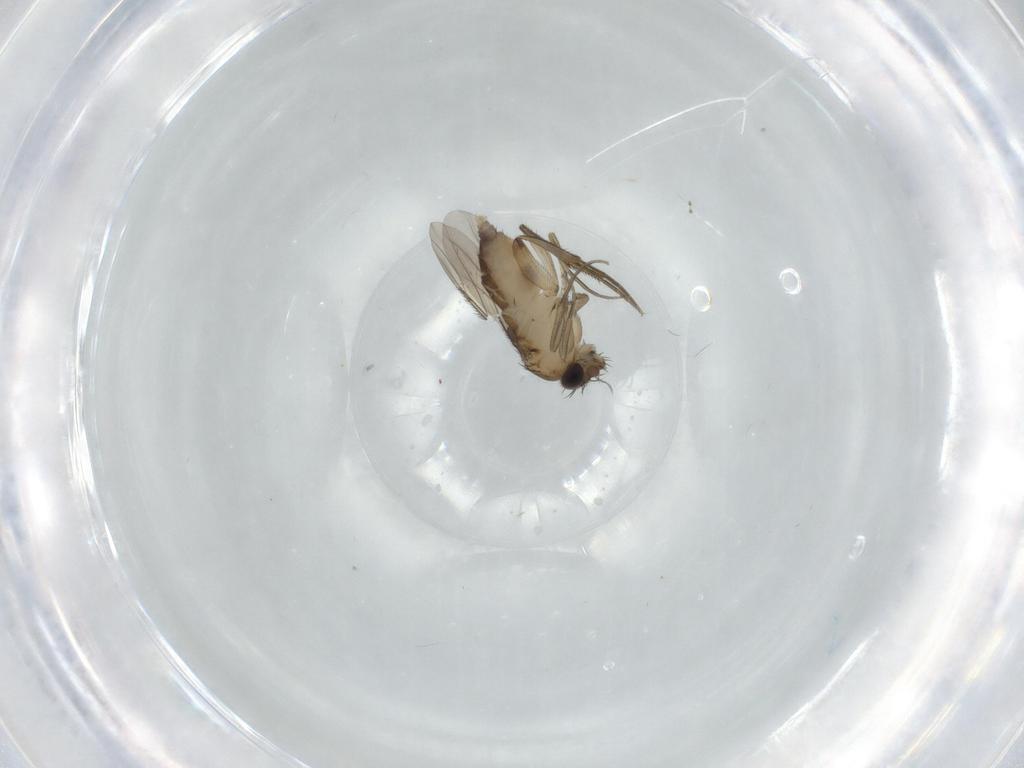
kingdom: Animalia
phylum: Arthropoda
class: Insecta
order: Diptera
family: Phoridae
